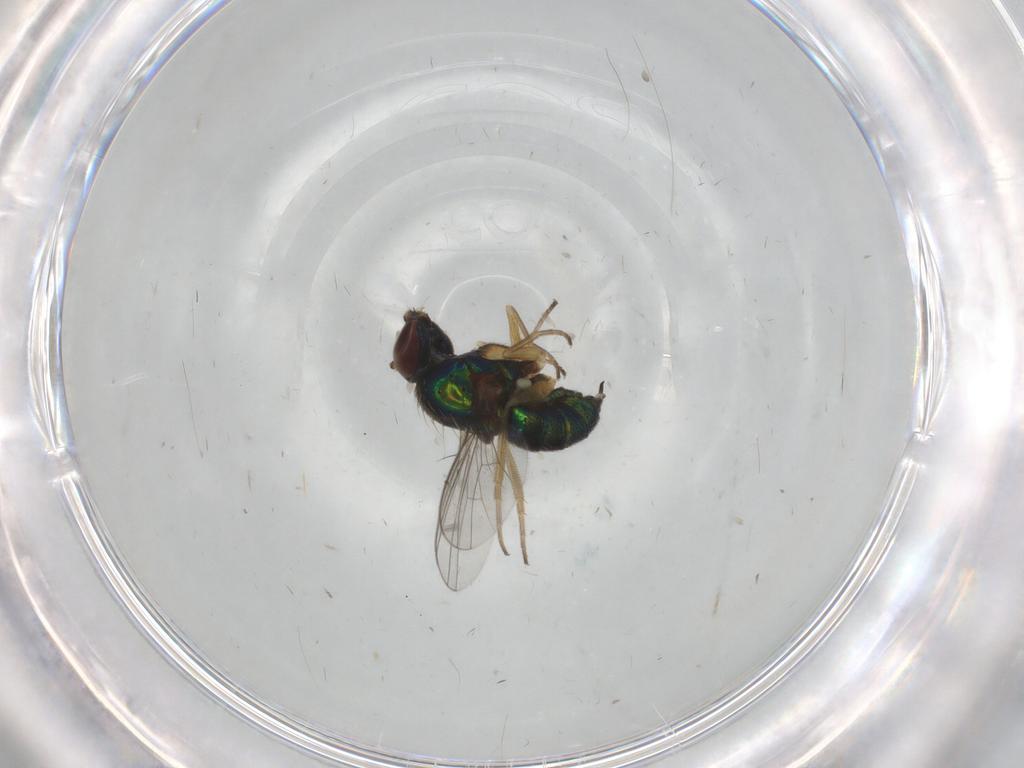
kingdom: Animalia
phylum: Arthropoda
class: Insecta
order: Diptera
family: Dolichopodidae
